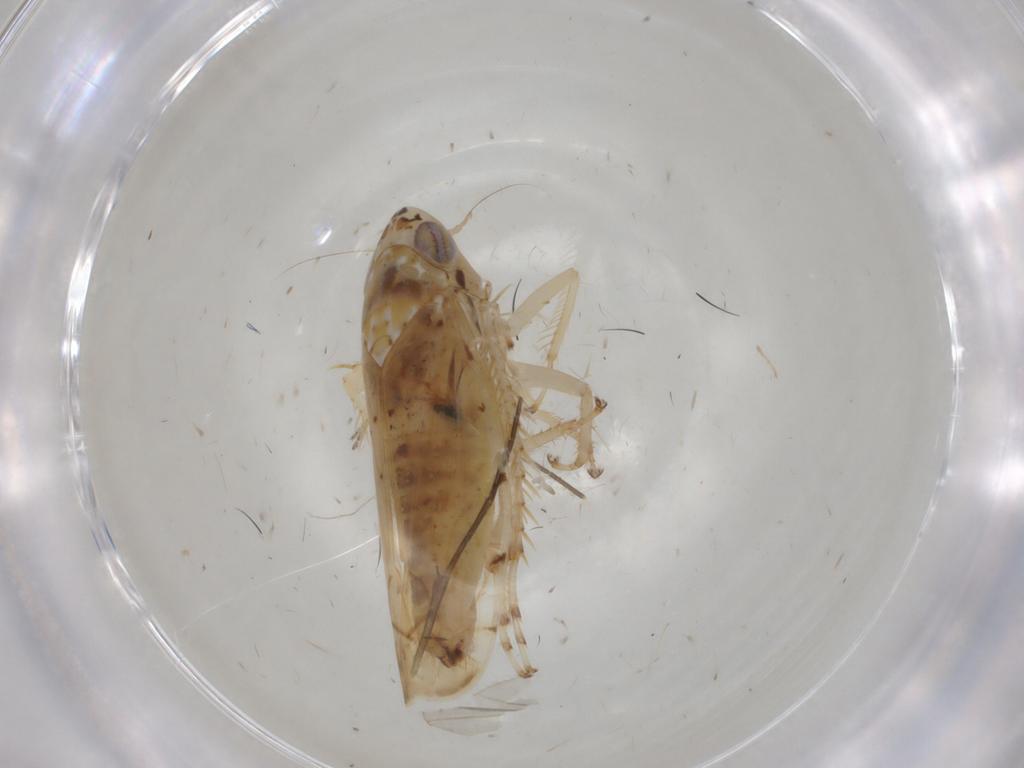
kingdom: Animalia
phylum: Arthropoda
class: Insecta
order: Hemiptera
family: Cicadellidae
